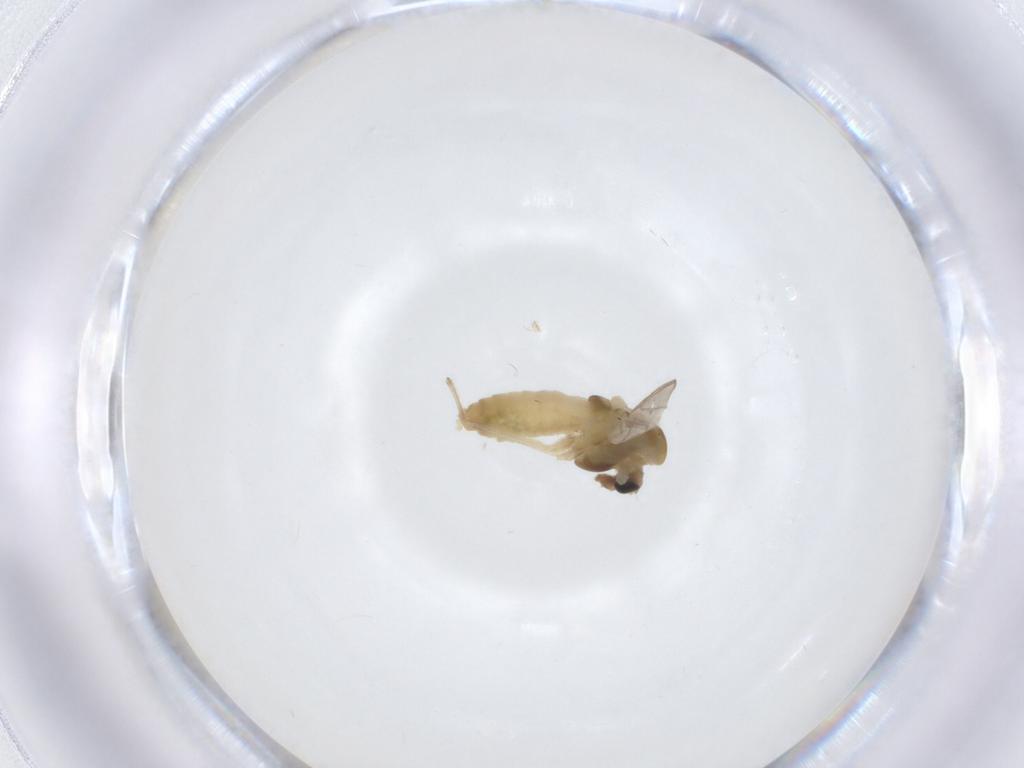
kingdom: Animalia
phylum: Arthropoda
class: Insecta
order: Diptera
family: Chironomidae
